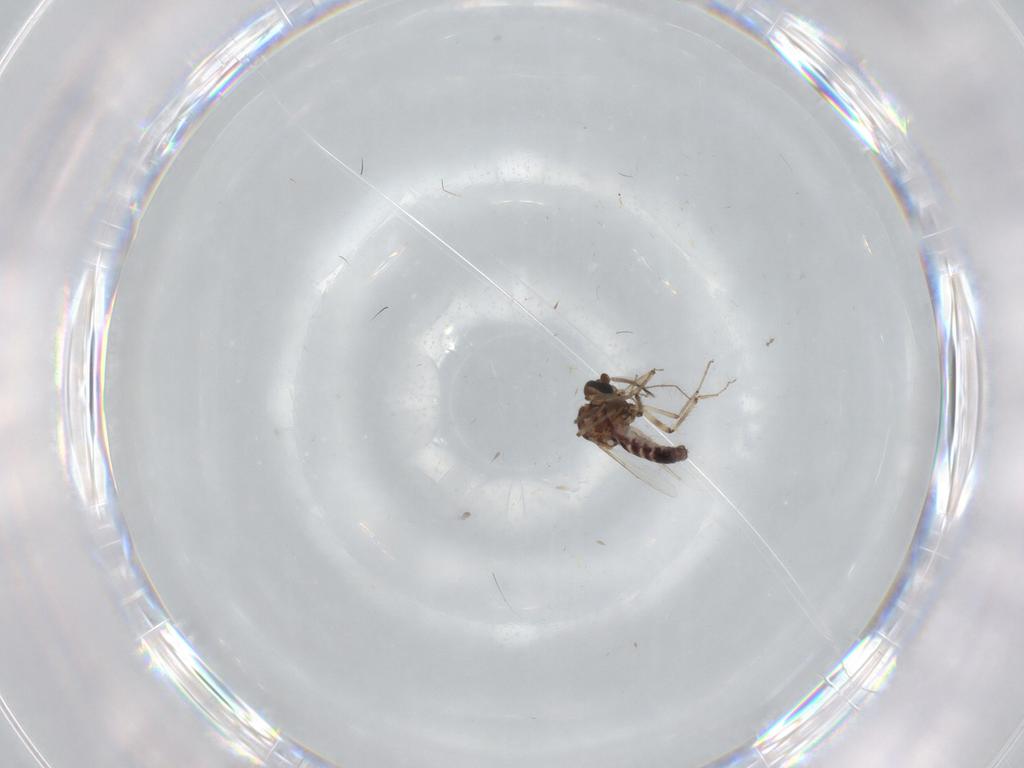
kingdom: Animalia
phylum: Arthropoda
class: Insecta
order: Diptera
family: Ceratopogonidae
